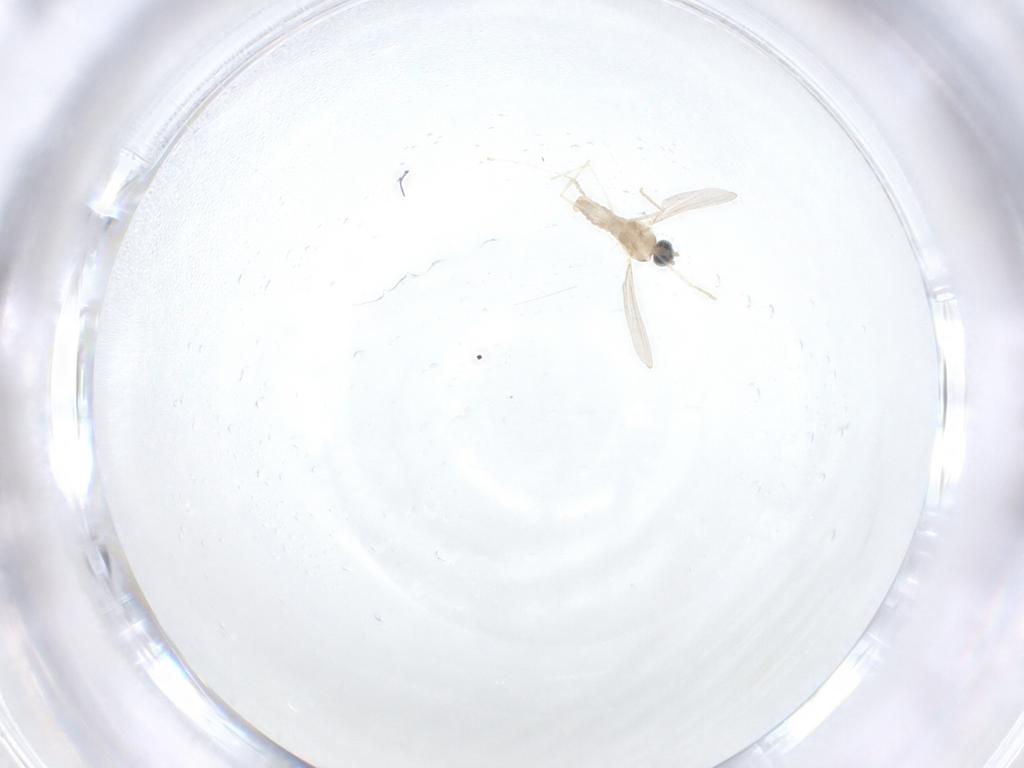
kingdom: Animalia
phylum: Arthropoda
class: Insecta
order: Diptera
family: Cecidomyiidae
